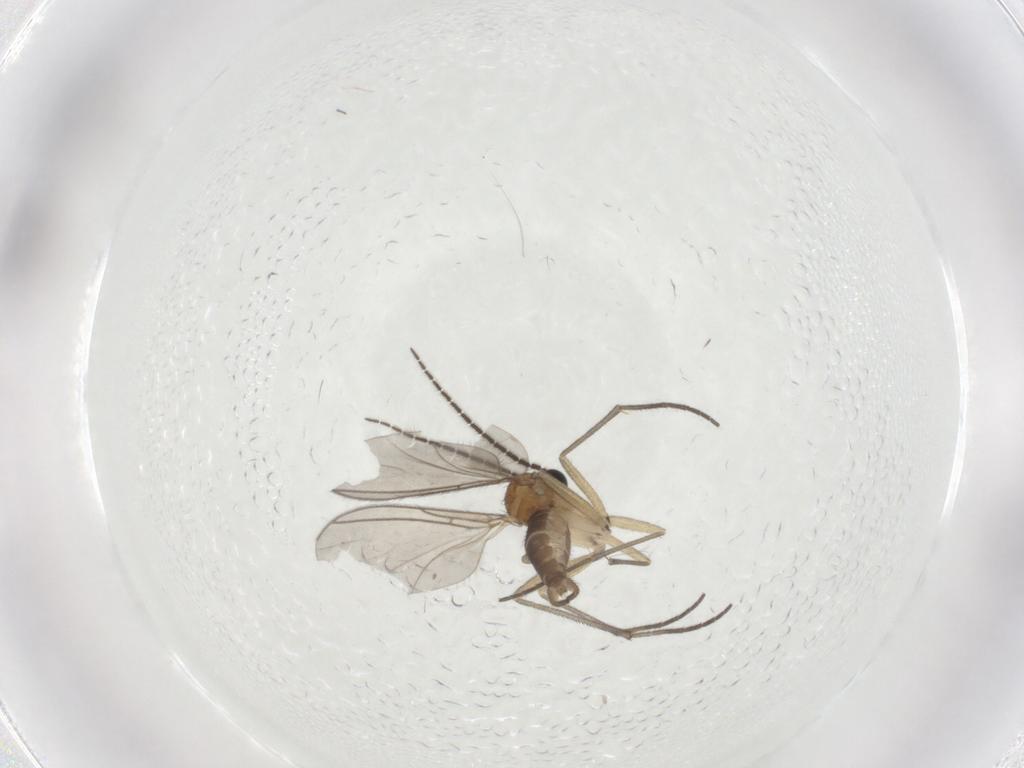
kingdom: Animalia
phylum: Arthropoda
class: Insecta
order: Diptera
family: Sciaridae
